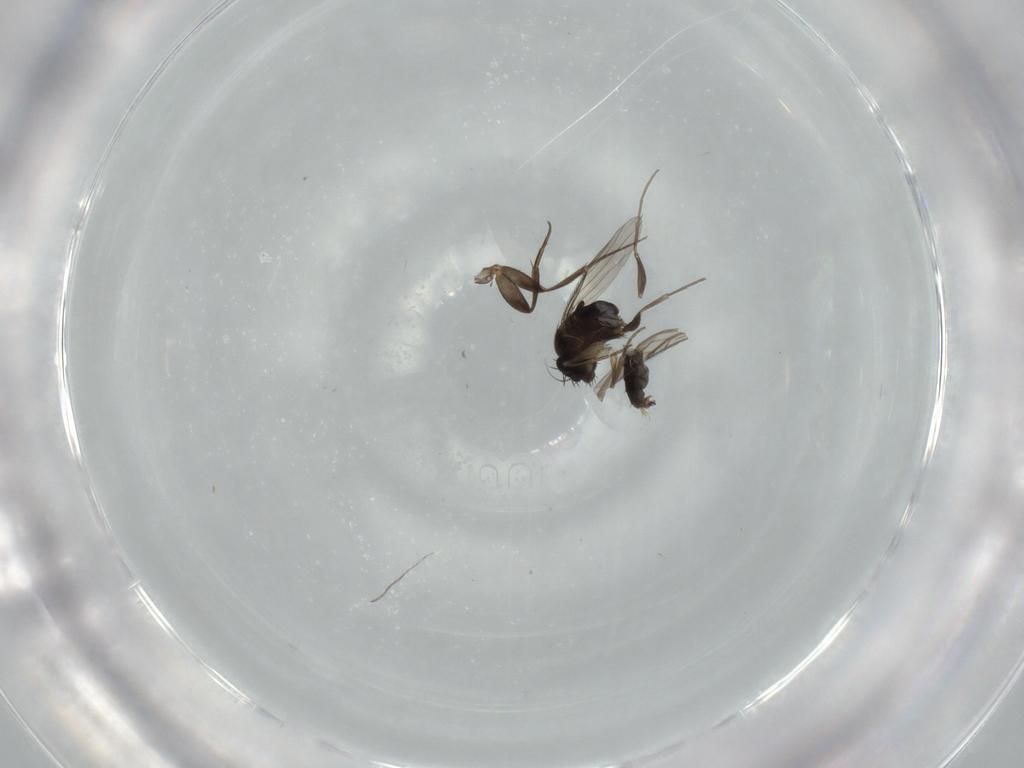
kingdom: Animalia
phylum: Arthropoda
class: Insecta
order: Diptera
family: Phoridae
